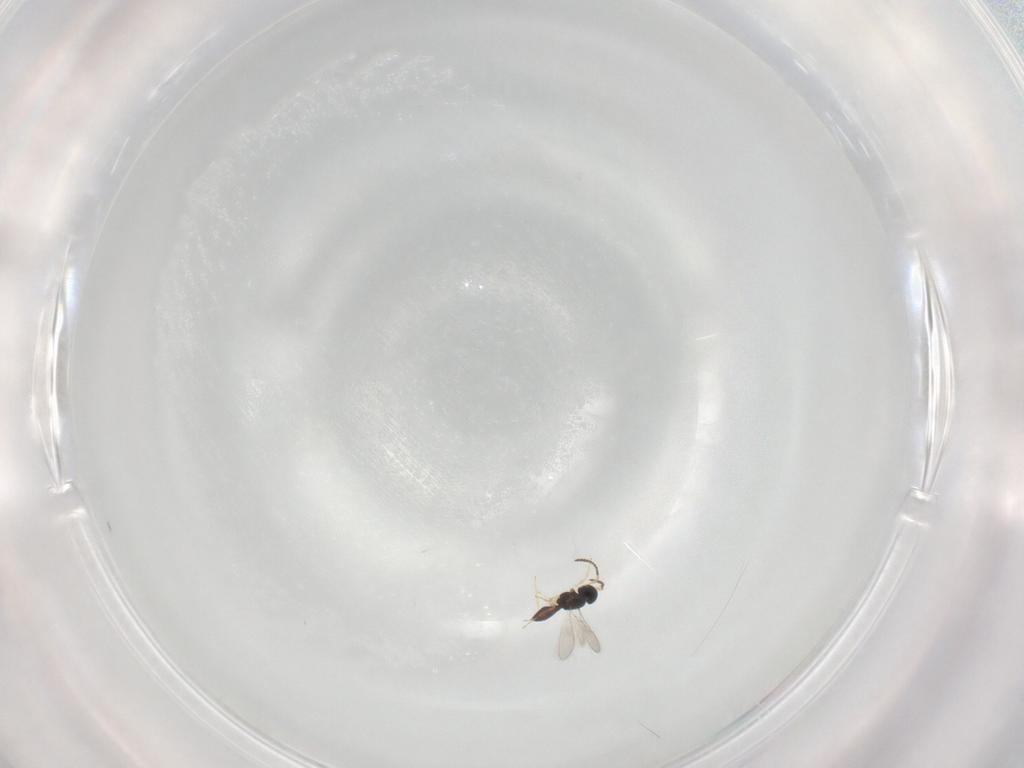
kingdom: Animalia
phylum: Arthropoda
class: Insecta
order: Hymenoptera
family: Scelionidae
